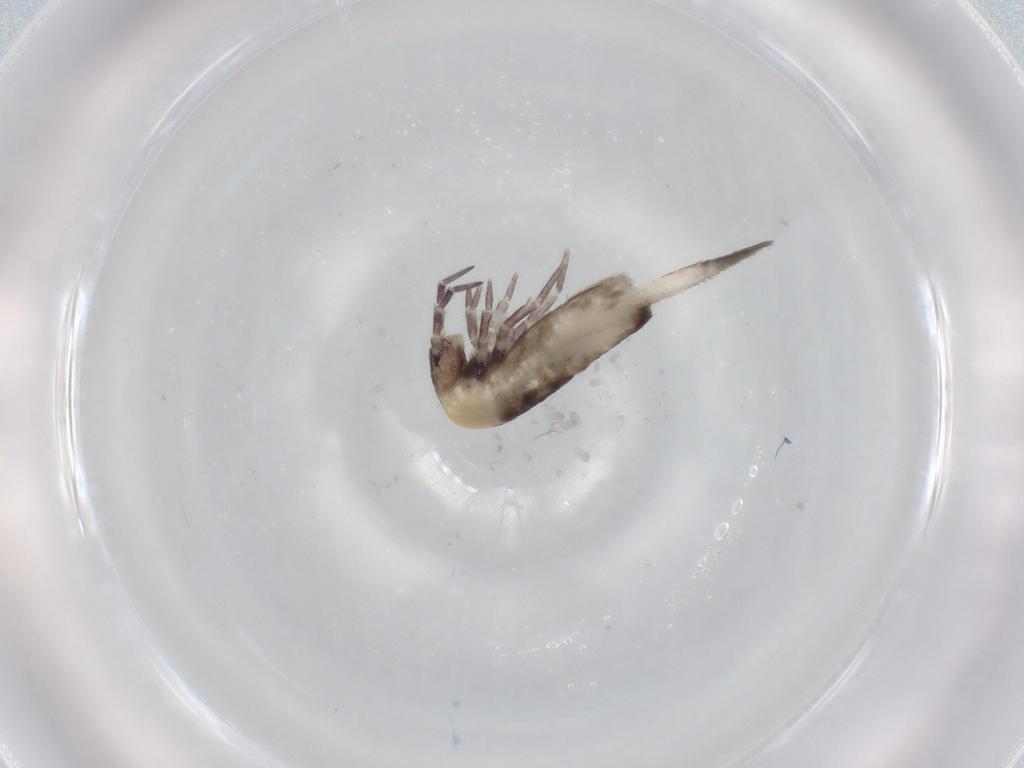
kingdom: Animalia
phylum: Arthropoda
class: Collembola
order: Entomobryomorpha
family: Entomobryidae
